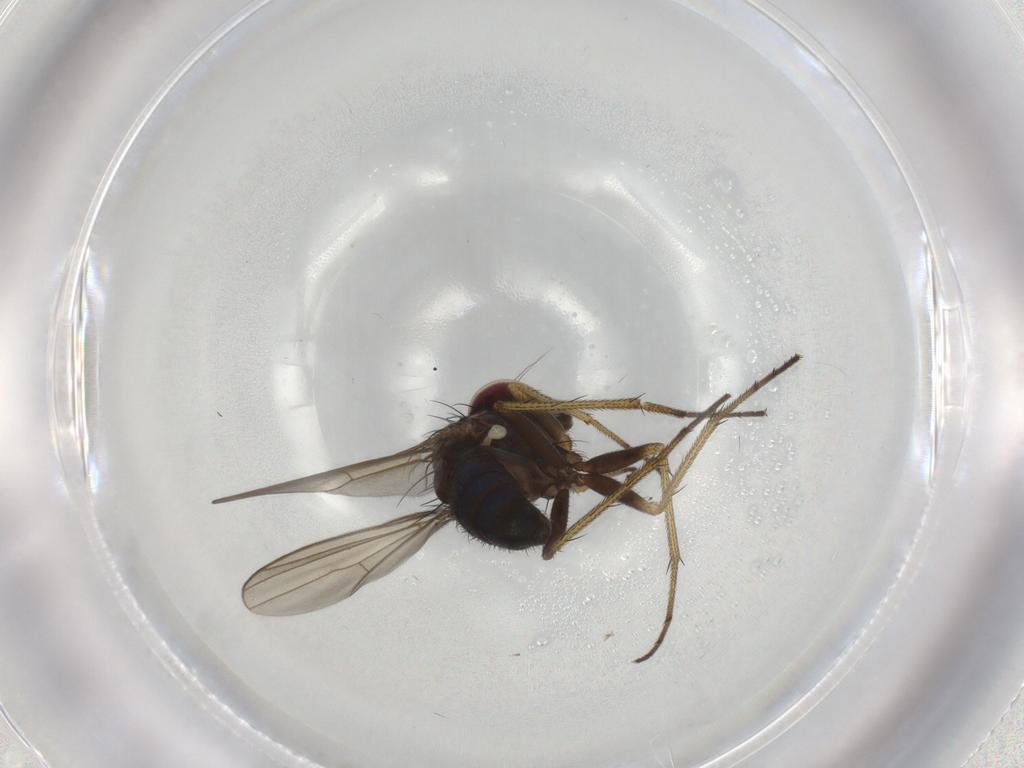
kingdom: Animalia
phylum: Arthropoda
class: Insecta
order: Diptera
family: Dolichopodidae
